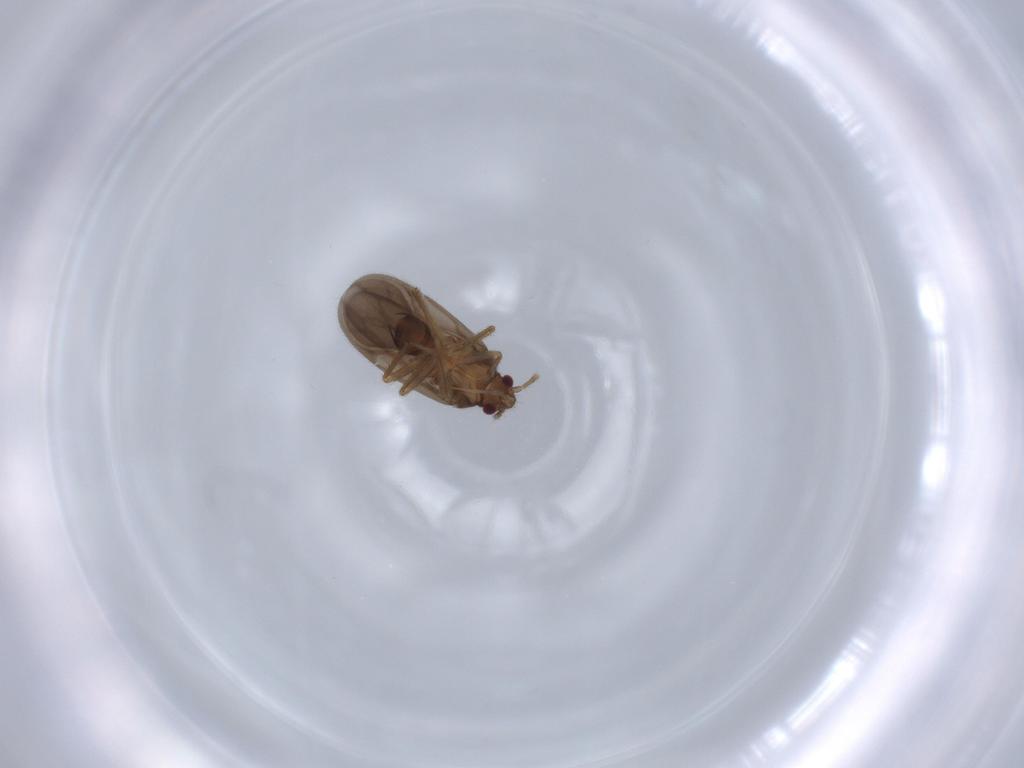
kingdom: Animalia
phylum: Arthropoda
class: Insecta
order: Hemiptera
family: Ceratocombidae
